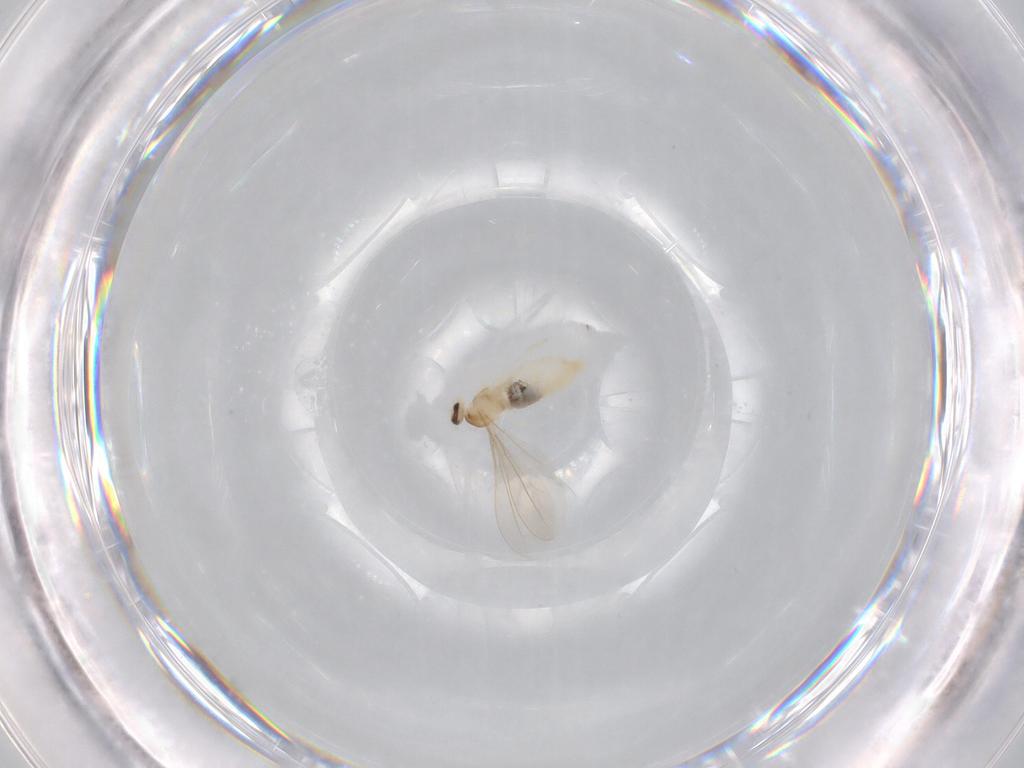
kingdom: Animalia
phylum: Arthropoda
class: Insecta
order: Diptera
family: Cecidomyiidae
